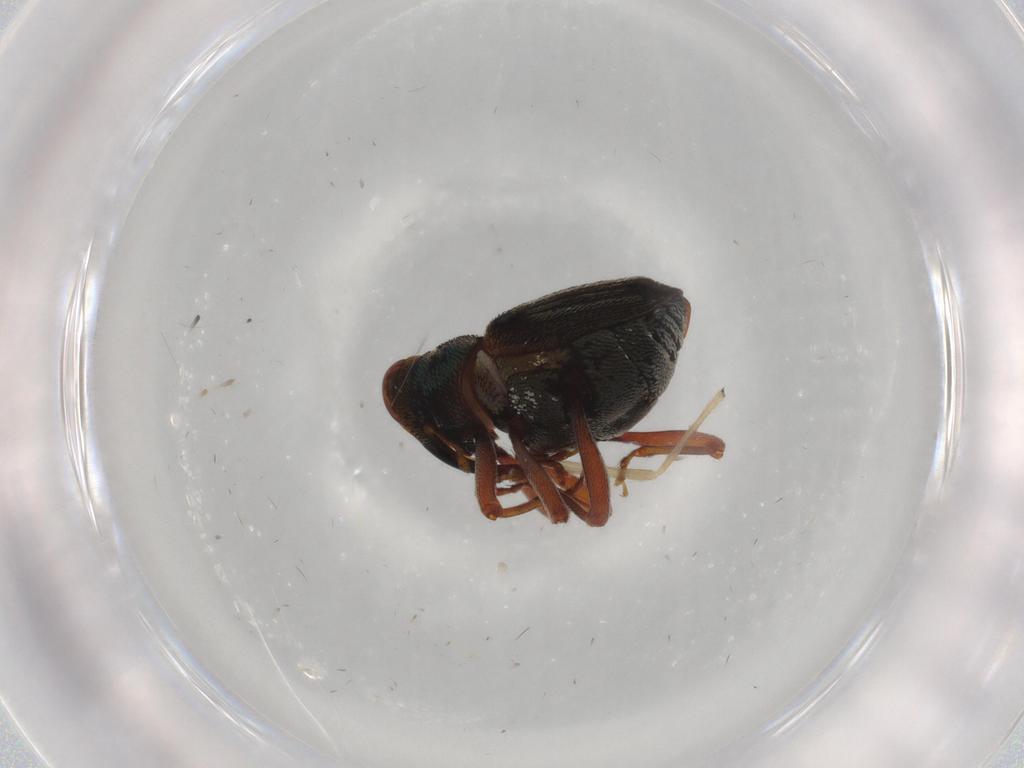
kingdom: Animalia
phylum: Arthropoda
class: Insecta
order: Coleoptera
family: Curculionidae
